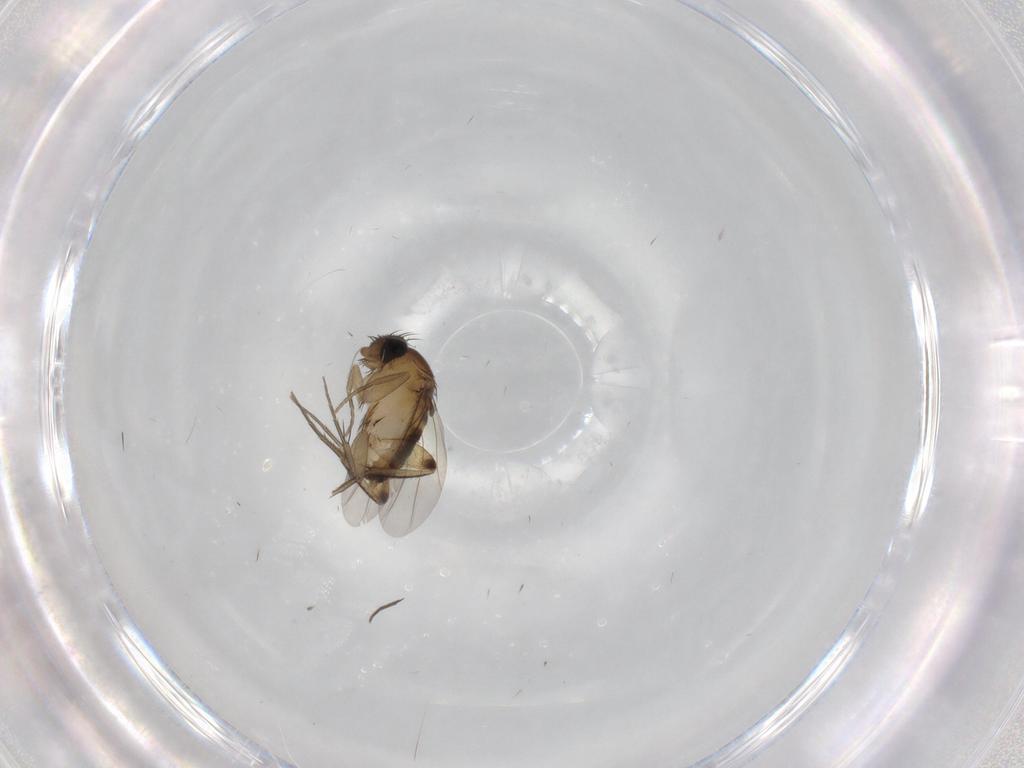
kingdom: Animalia
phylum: Arthropoda
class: Insecta
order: Diptera
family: Phoridae
